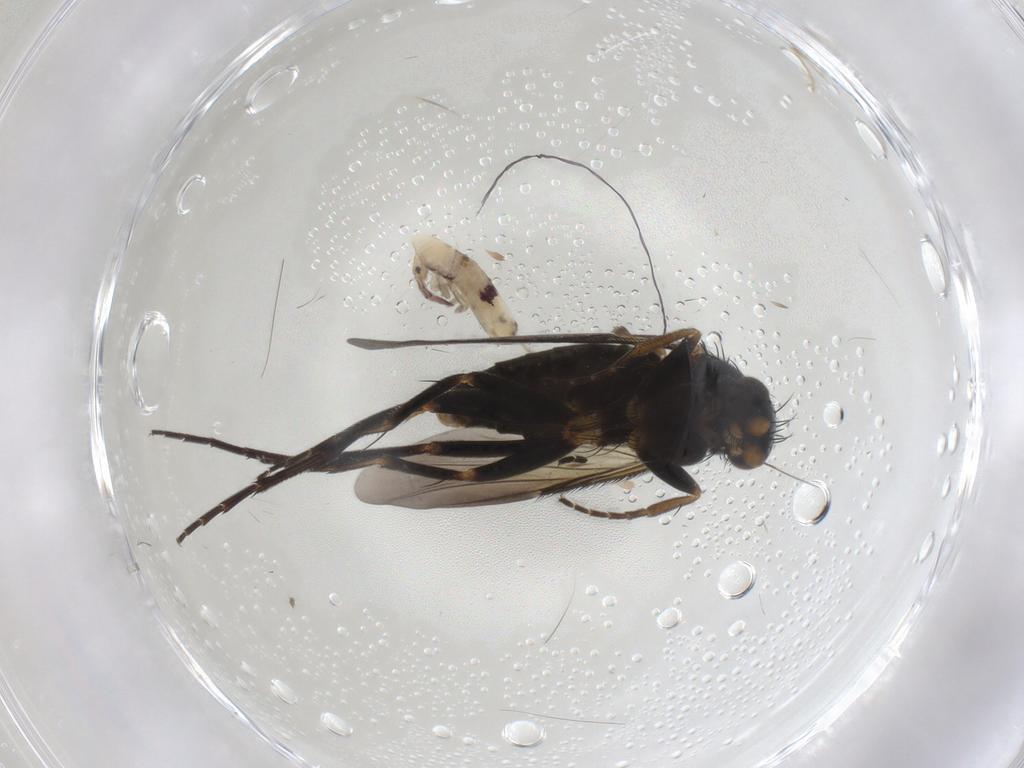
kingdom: Animalia
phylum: Arthropoda
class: Insecta
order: Diptera
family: Phoridae
